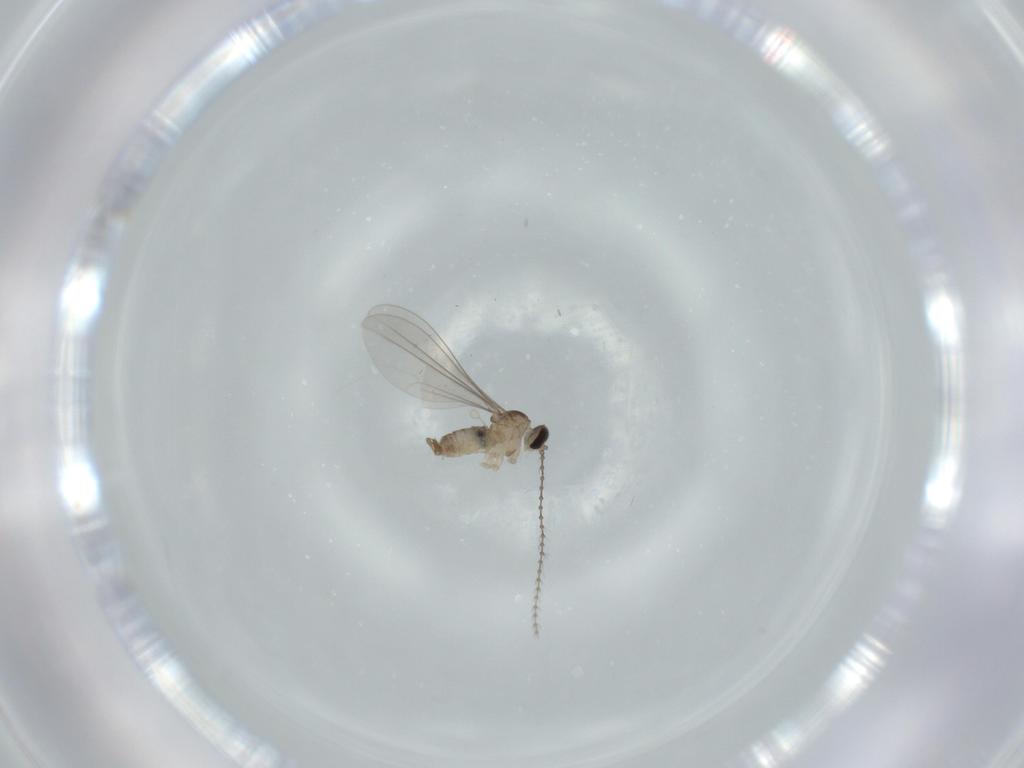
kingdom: Animalia
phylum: Arthropoda
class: Insecta
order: Diptera
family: Cecidomyiidae
